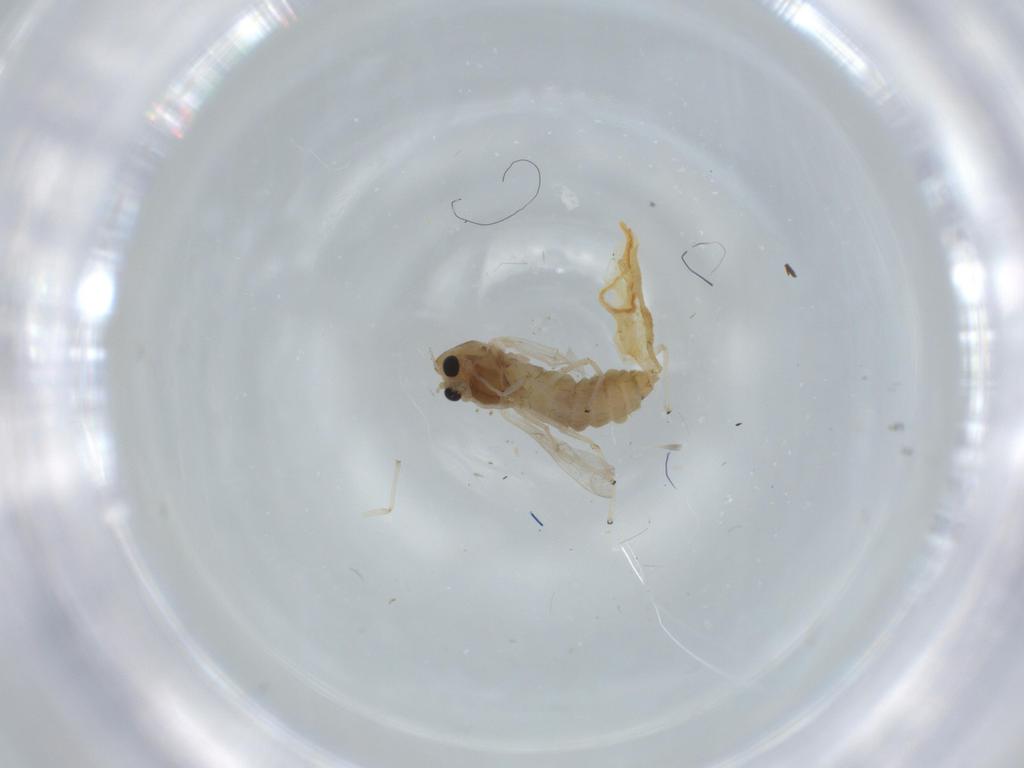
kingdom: Animalia
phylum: Arthropoda
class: Insecta
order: Diptera
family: Chironomidae
